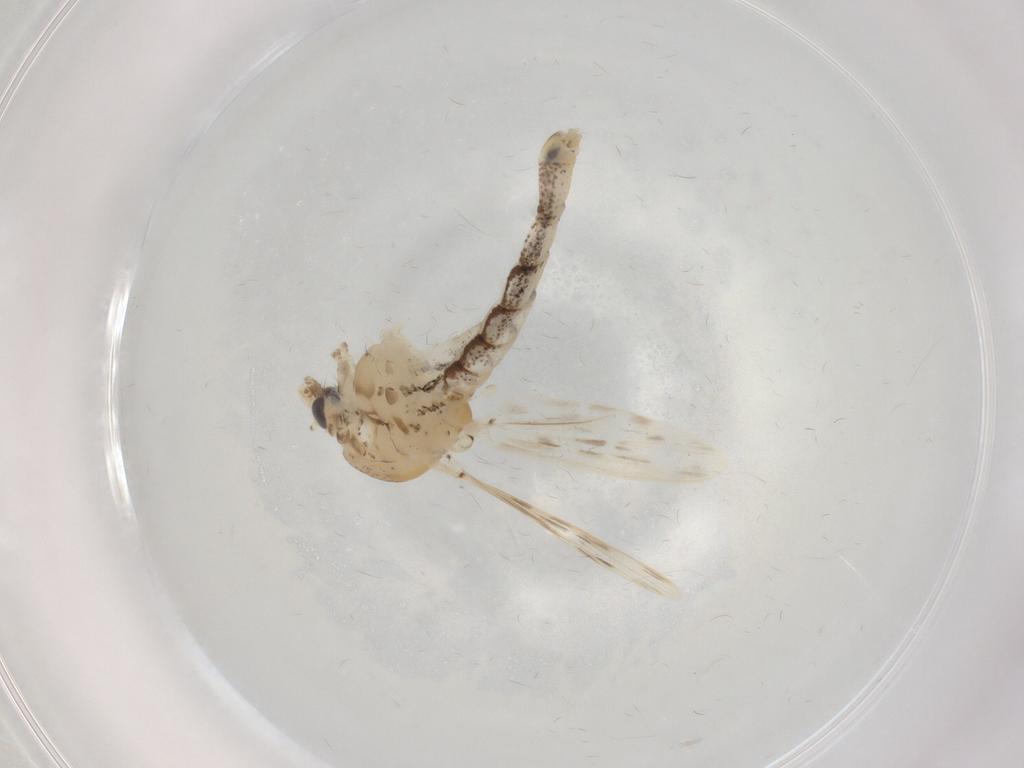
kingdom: Animalia
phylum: Arthropoda
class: Insecta
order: Diptera
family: Chaoboridae
